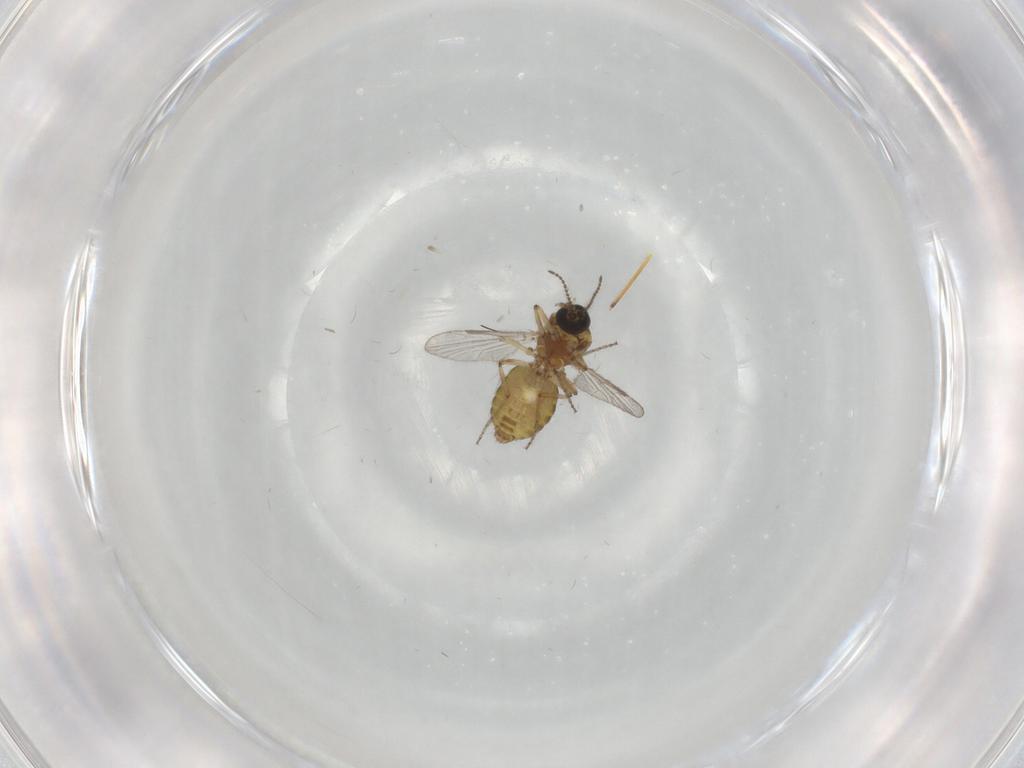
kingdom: Animalia
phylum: Arthropoda
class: Insecta
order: Diptera
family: Ceratopogonidae
